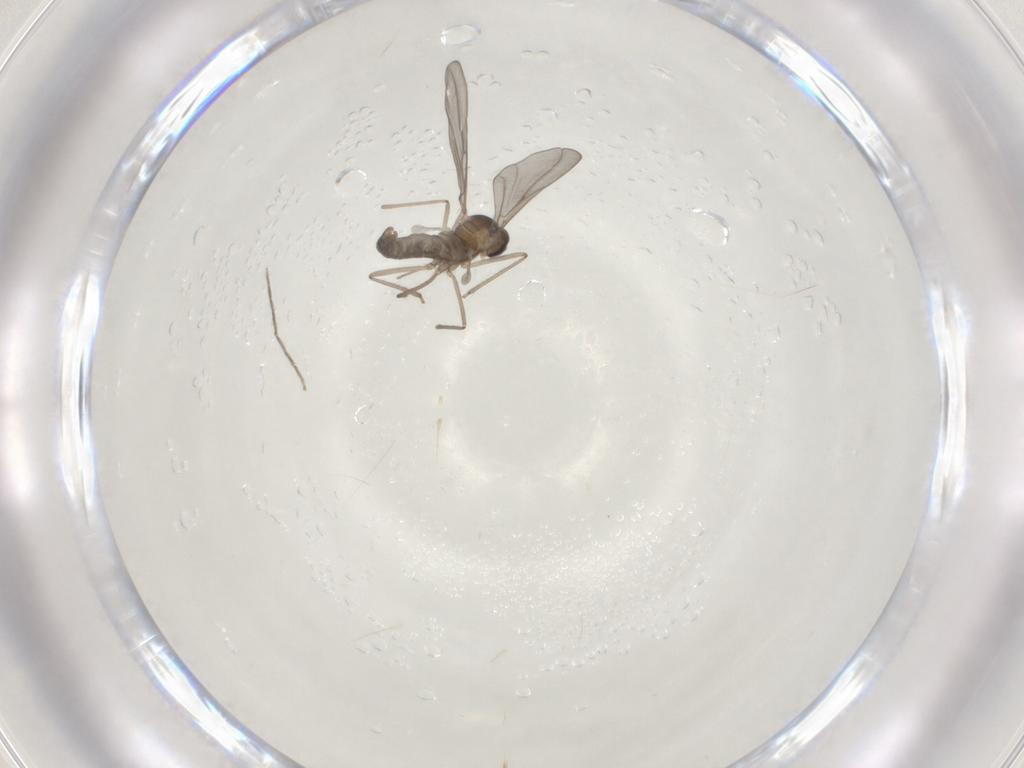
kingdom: Animalia
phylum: Arthropoda
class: Insecta
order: Diptera
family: Cecidomyiidae
